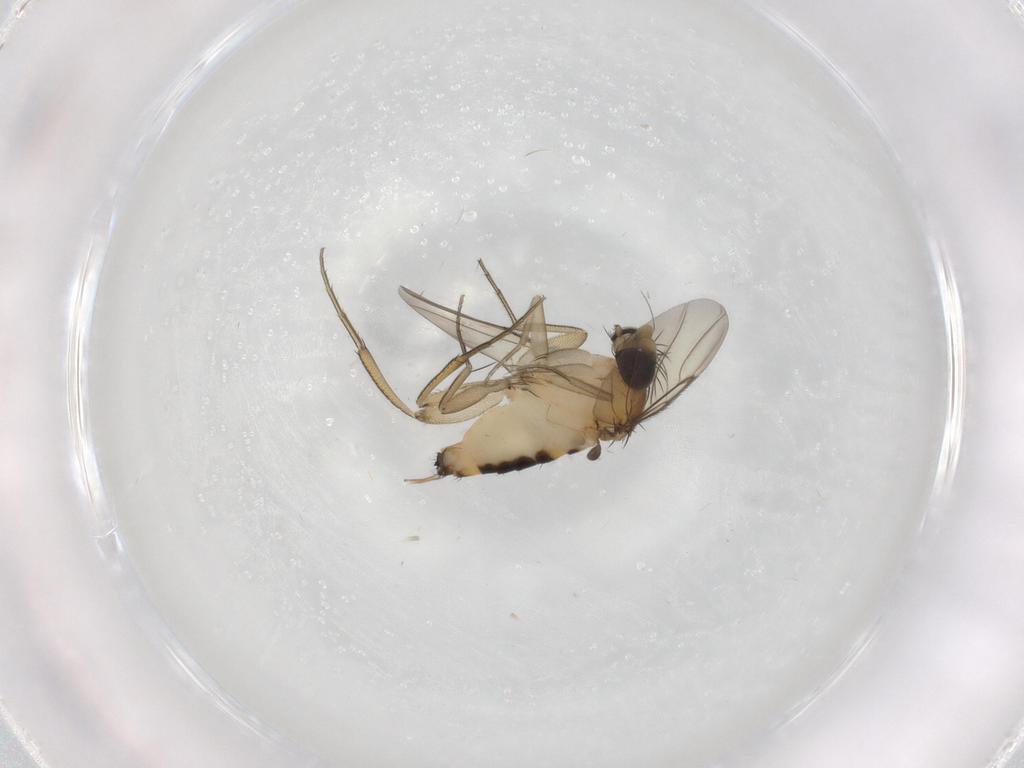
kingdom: Animalia
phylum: Arthropoda
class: Insecta
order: Diptera
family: Phoridae
